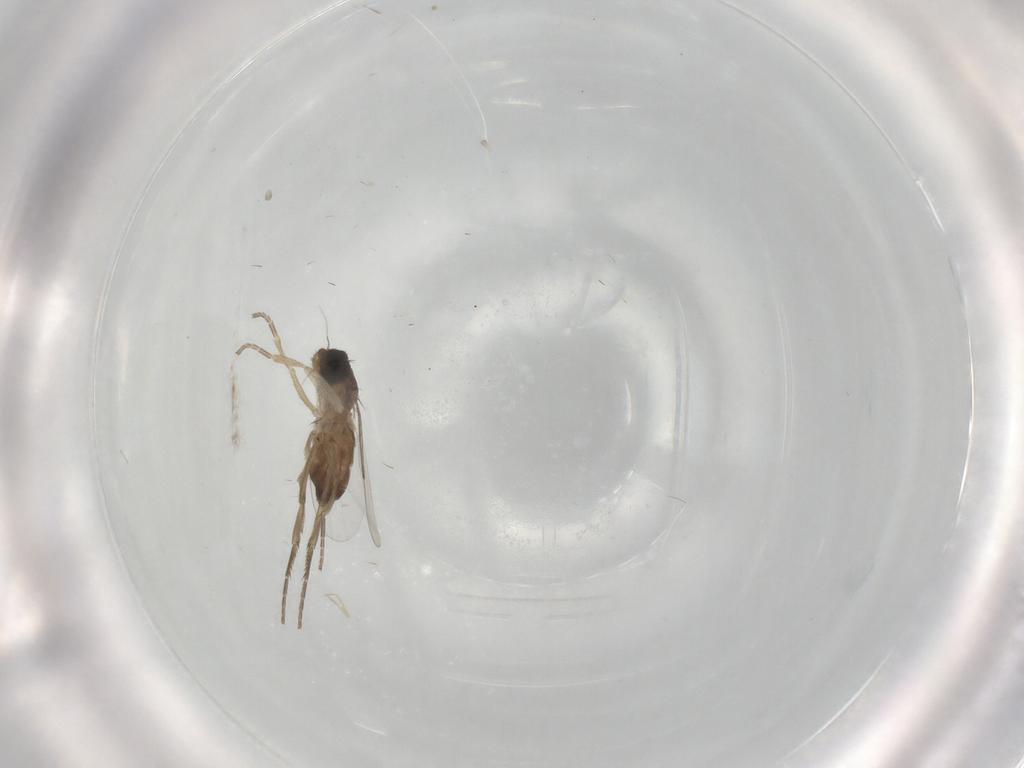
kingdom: Animalia
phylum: Arthropoda
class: Insecta
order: Diptera
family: Phoridae
